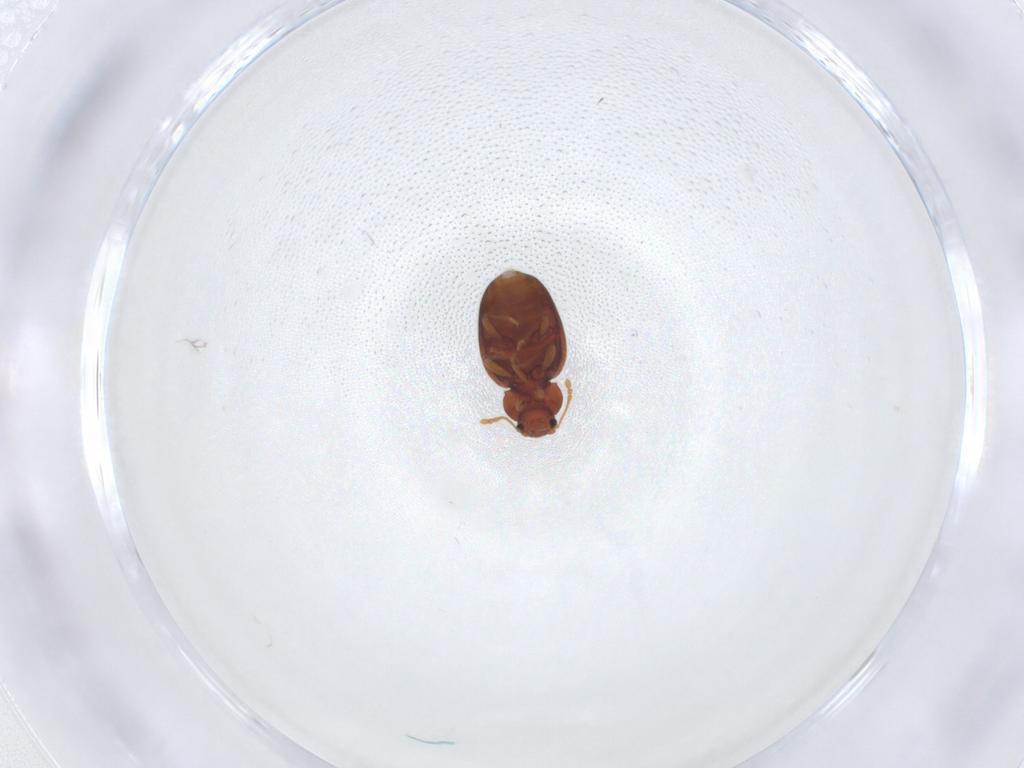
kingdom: Animalia
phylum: Arthropoda
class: Insecta
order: Coleoptera
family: Latridiidae
